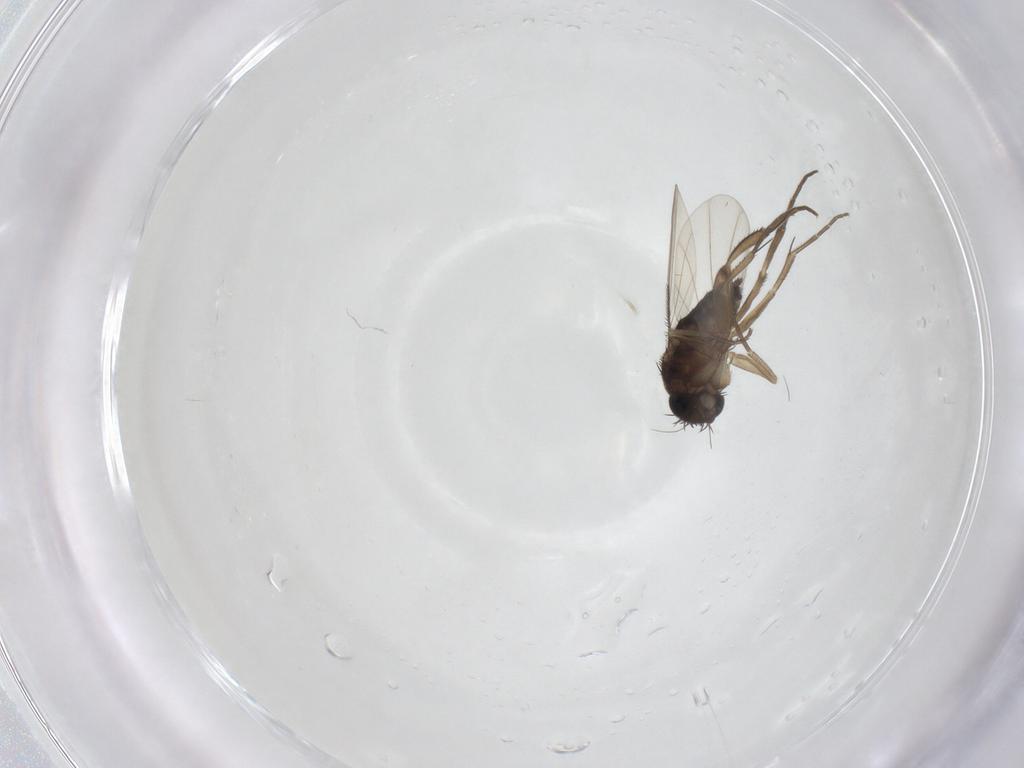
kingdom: Animalia
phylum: Arthropoda
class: Insecta
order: Diptera
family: Phoridae
